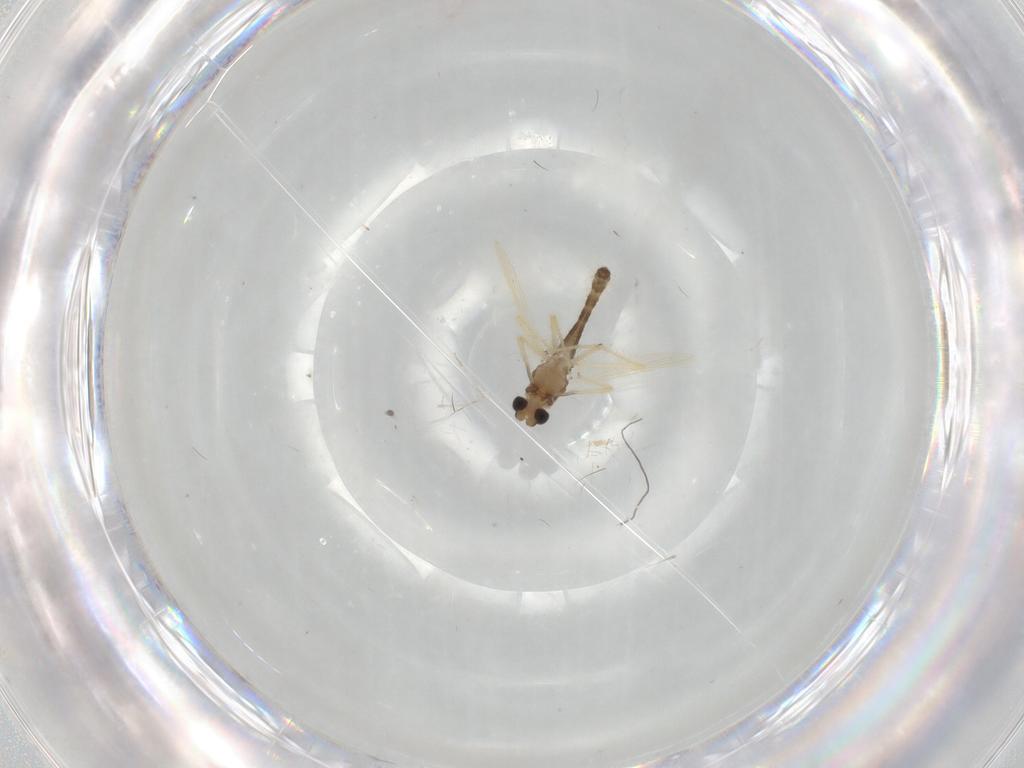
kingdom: Animalia
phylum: Arthropoda
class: Insecta
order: Diptera
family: Cecidomyiidae
